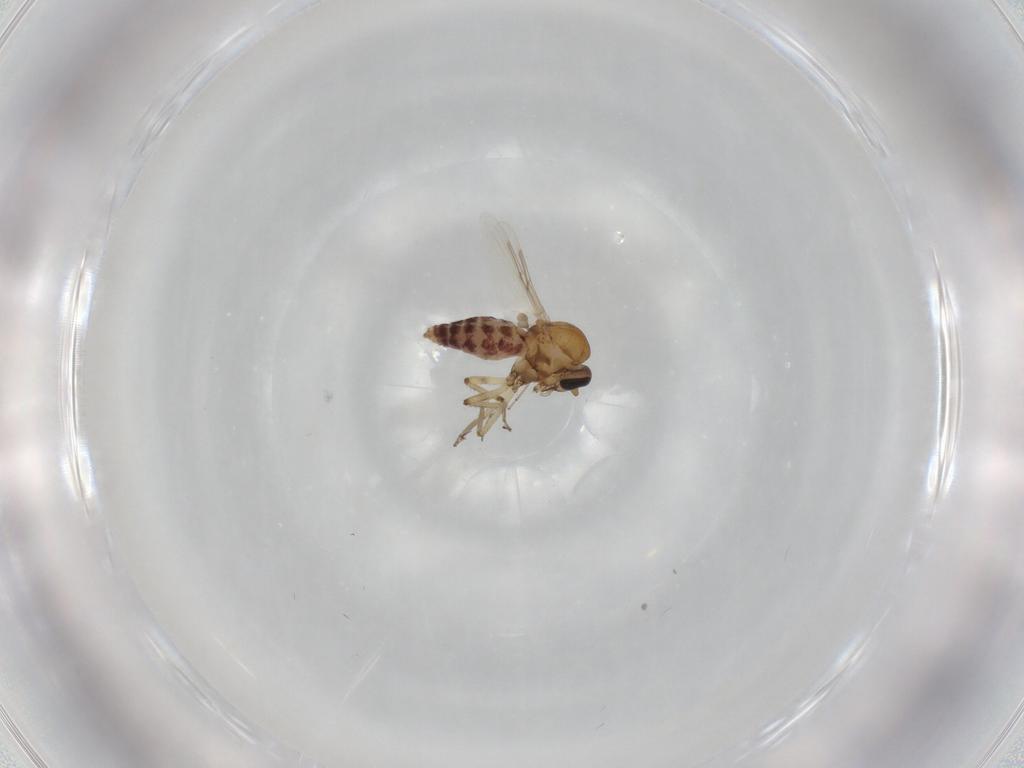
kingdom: Animalia
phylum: Arthropoda
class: Insecta
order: Diptera
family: Ceratopogonidae
